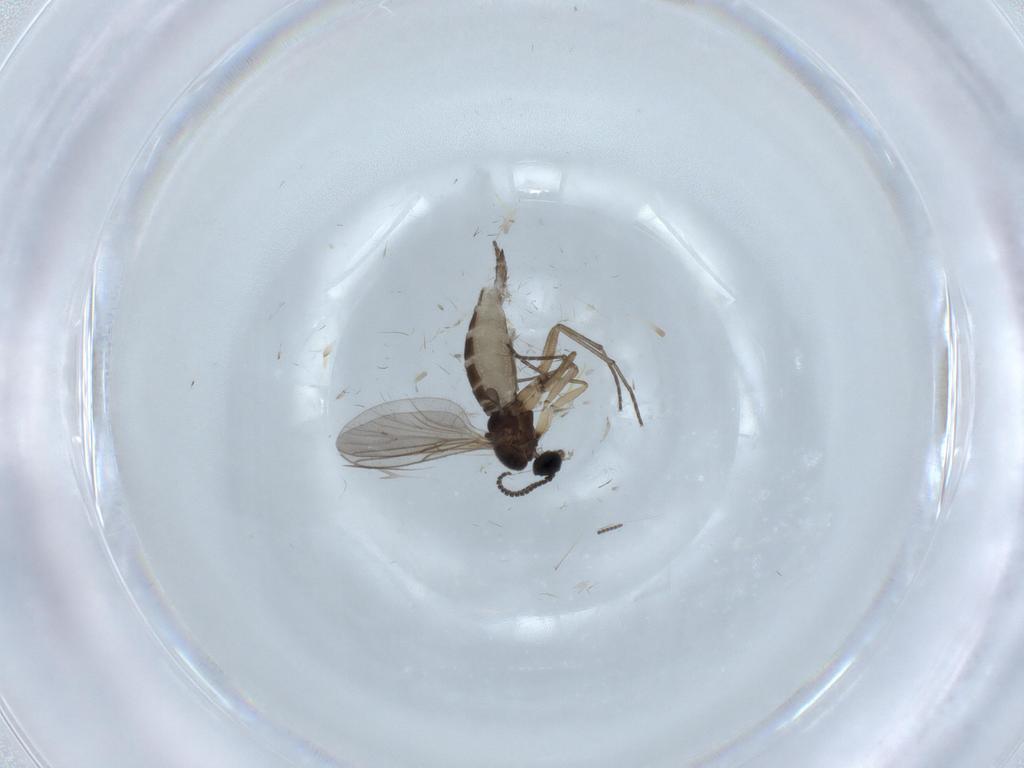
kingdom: Animalia
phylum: Arthropoda
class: Insecta
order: Diptera
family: Sciaridae
